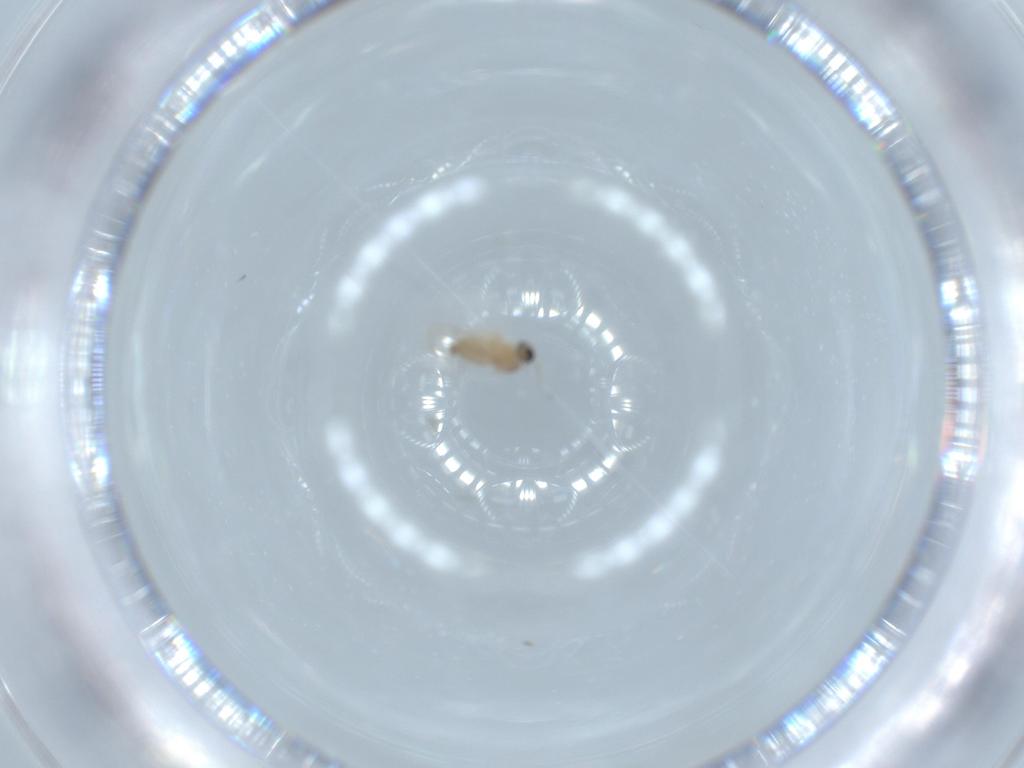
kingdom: Animalia
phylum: Arthropoda
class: Insecta
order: Diptera
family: Cecidomyiidae
